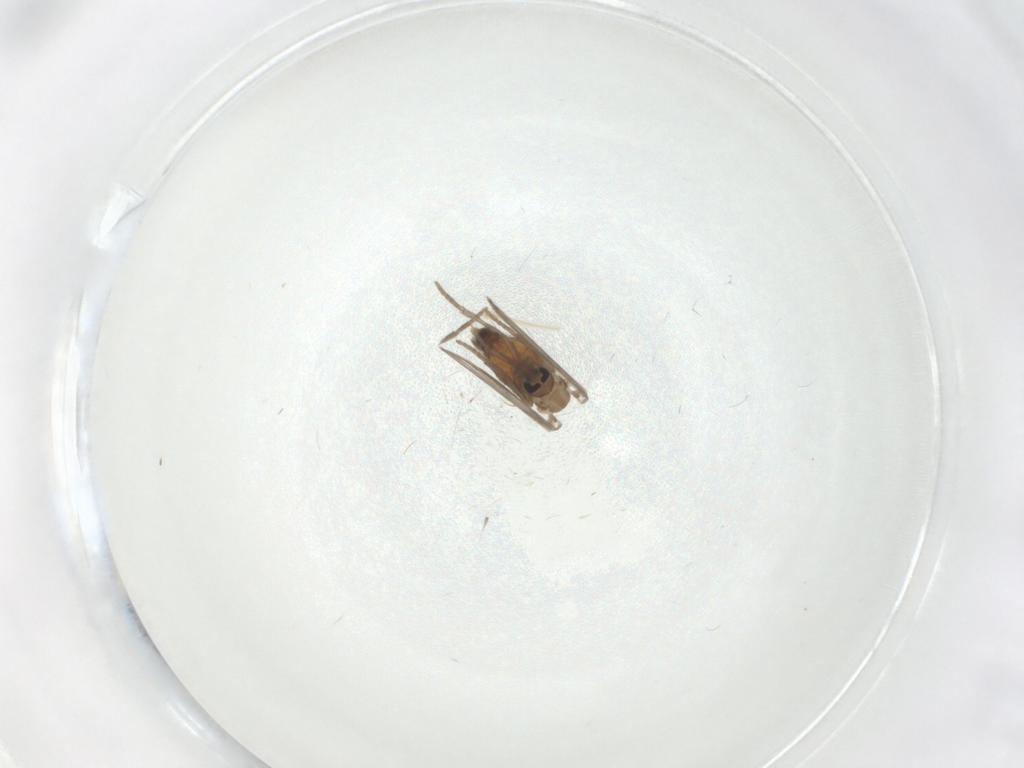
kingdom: Animalia
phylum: Arthropoda
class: Insecta
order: Diptera
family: Psychodidae
